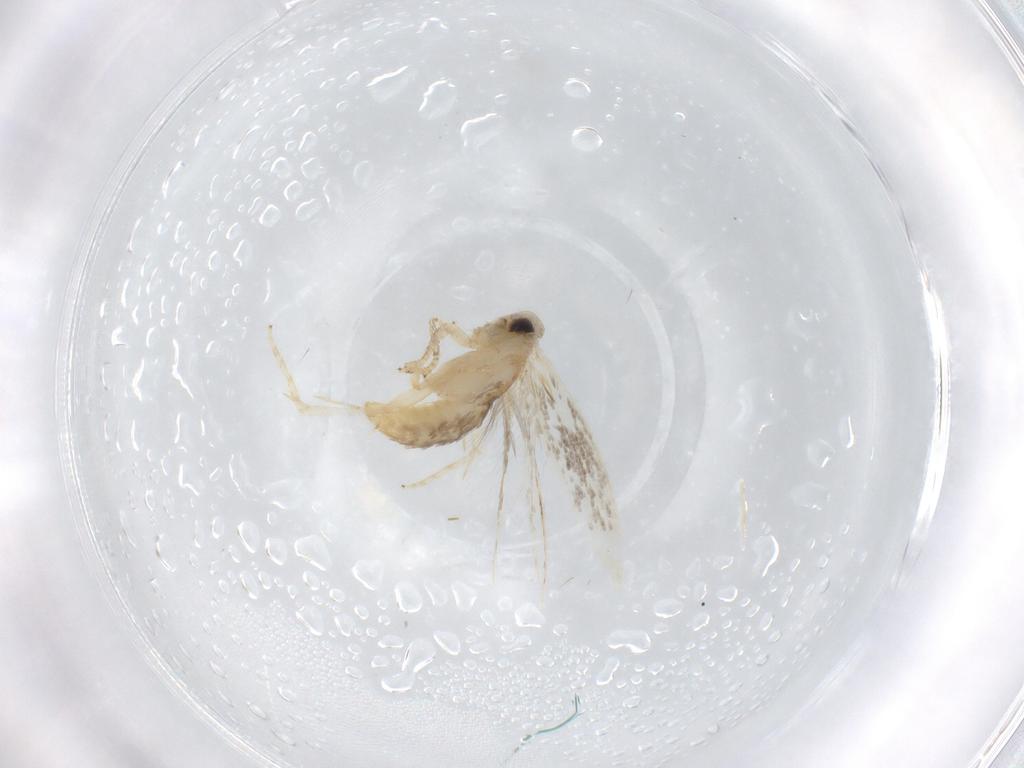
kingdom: Animalia
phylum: Arthropoda
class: Insecta
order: Lepidoptera
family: Opostegidae
